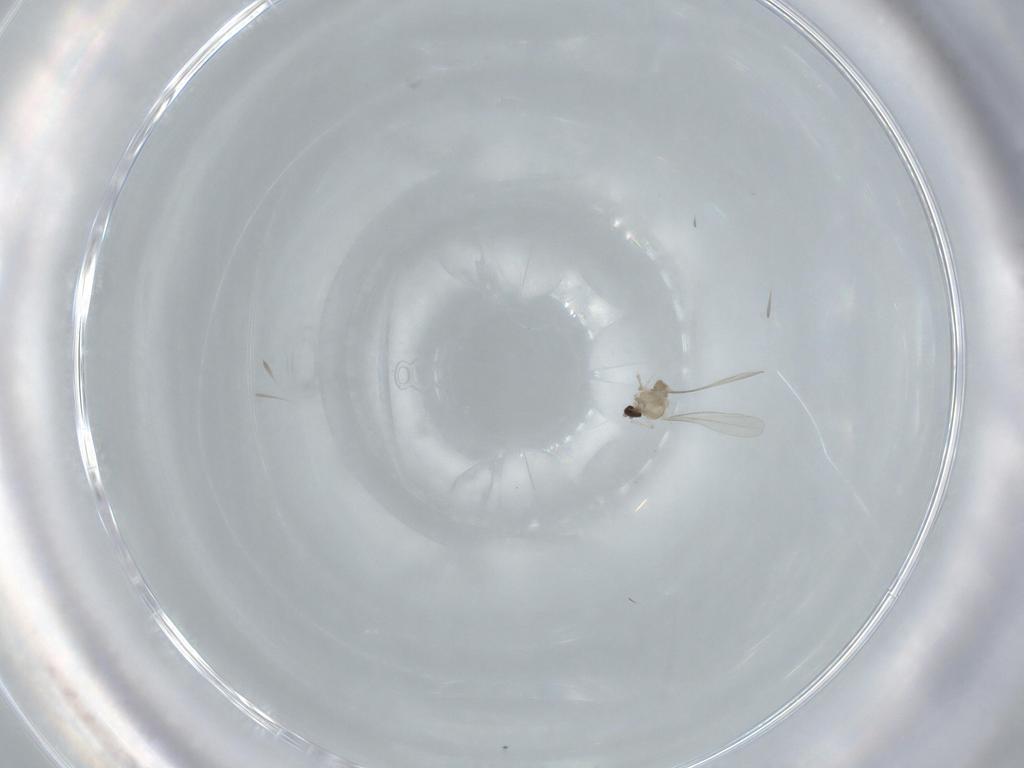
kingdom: Animalia
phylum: Arthropoda
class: Insecta
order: Diptera
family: Cecidomyiidae
